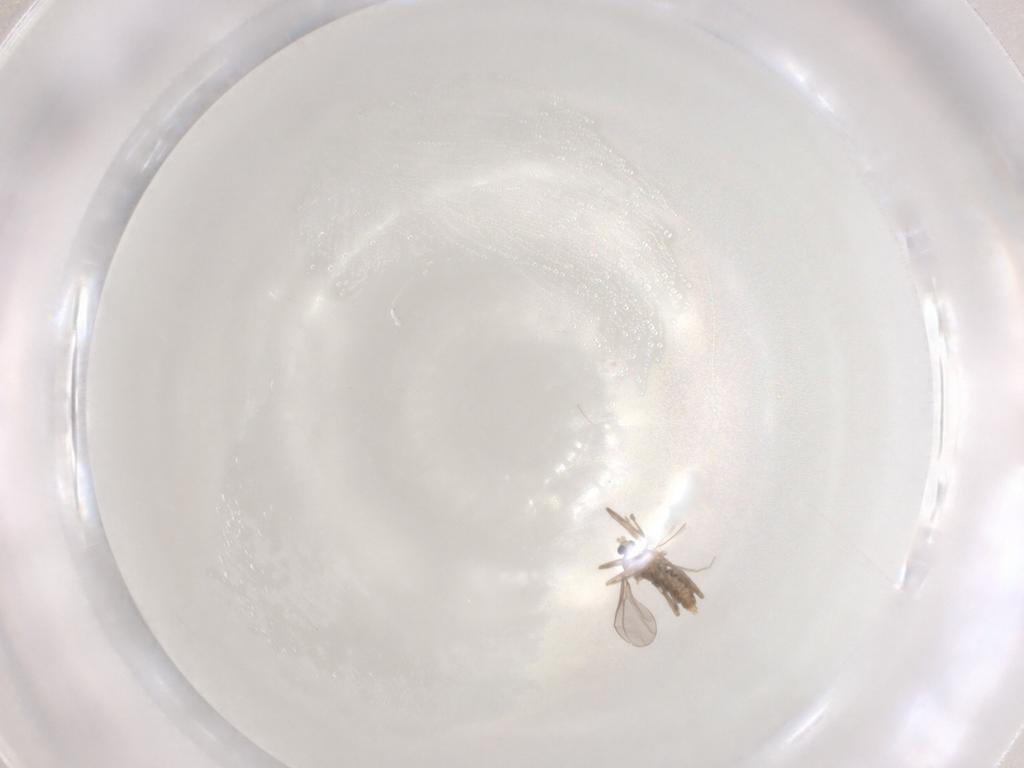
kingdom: Animalia
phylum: Arthropoda
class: Insecta
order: Diptera
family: Cecidomyiidae
